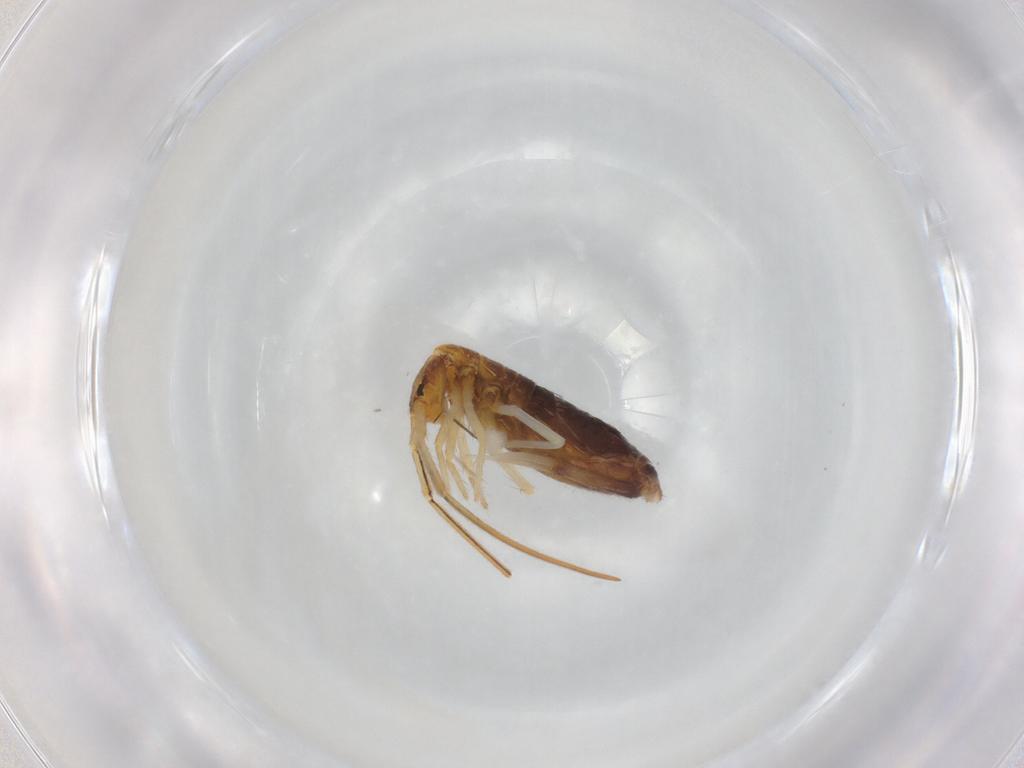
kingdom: Animalia
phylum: Arthropoda
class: Collembola
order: Entomobryomorpha
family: Entomobryidae
